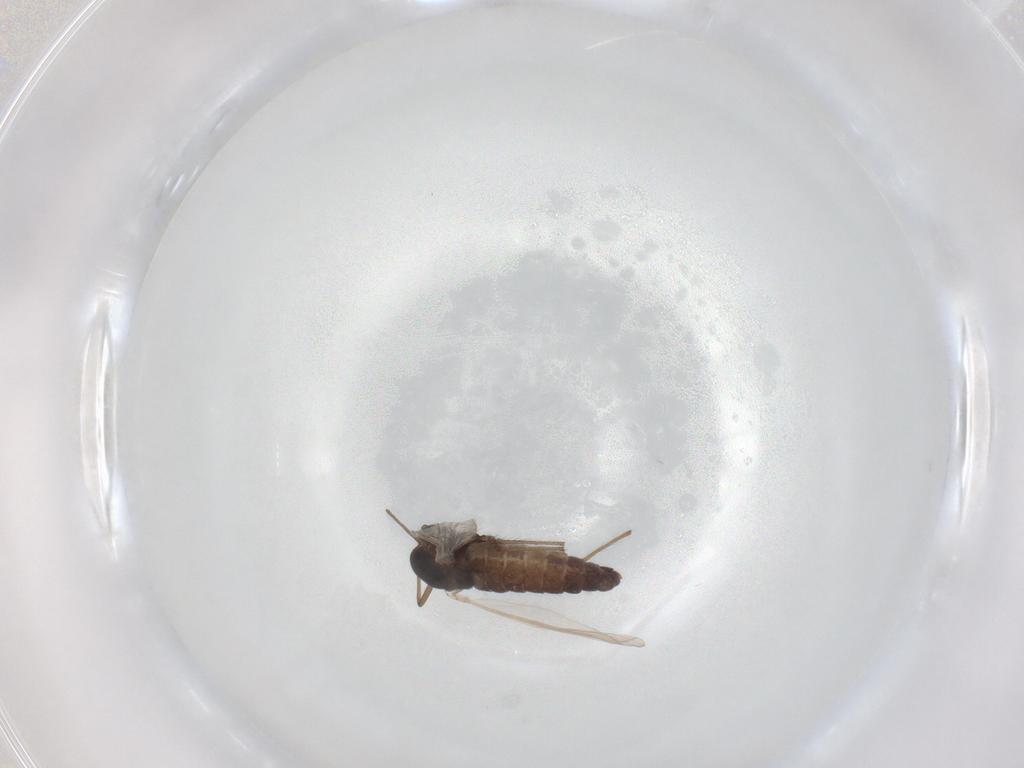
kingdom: Animalia
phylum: Arthropoda
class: Insecta
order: Diptera
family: Chironomidae
